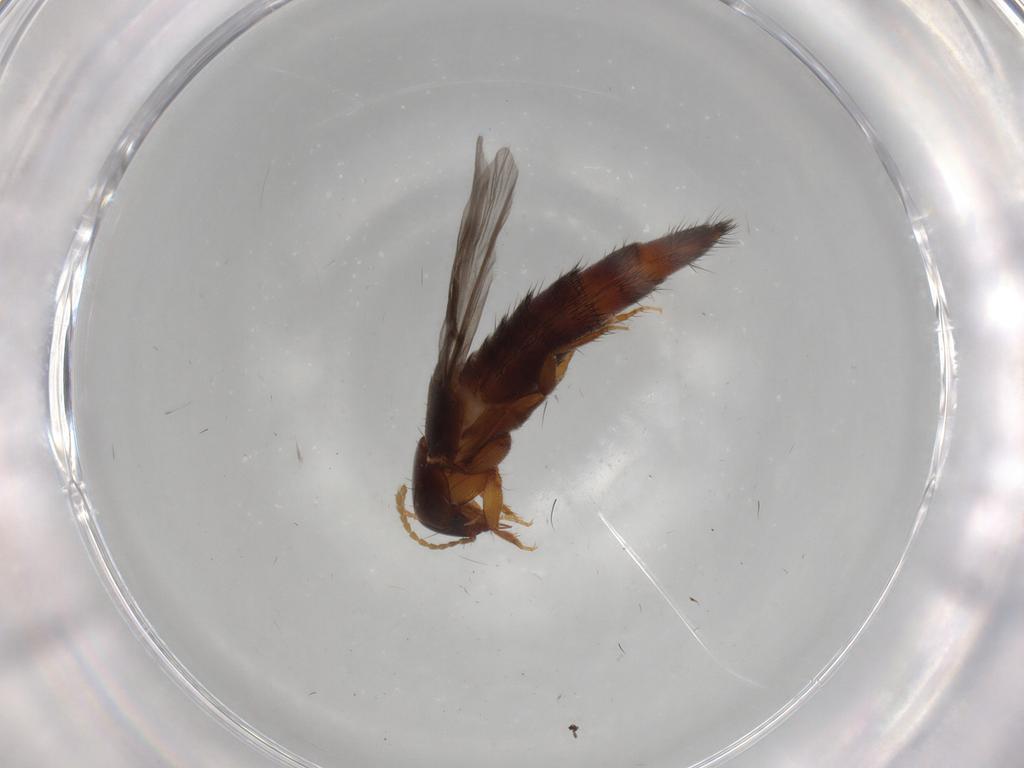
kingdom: Animalia
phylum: Arthropoda
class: Insecta
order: Coleoptera
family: Staphylinidae
